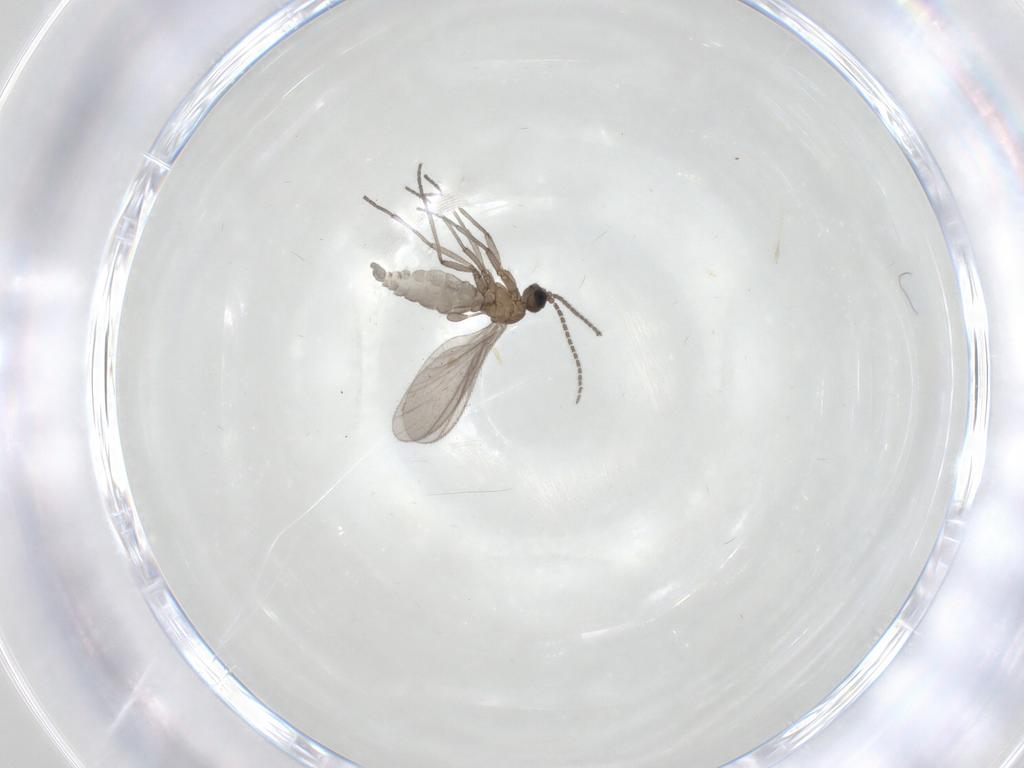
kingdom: Animalia
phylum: Arthropoda
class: Insecta
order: Diptera
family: Sciaridae
